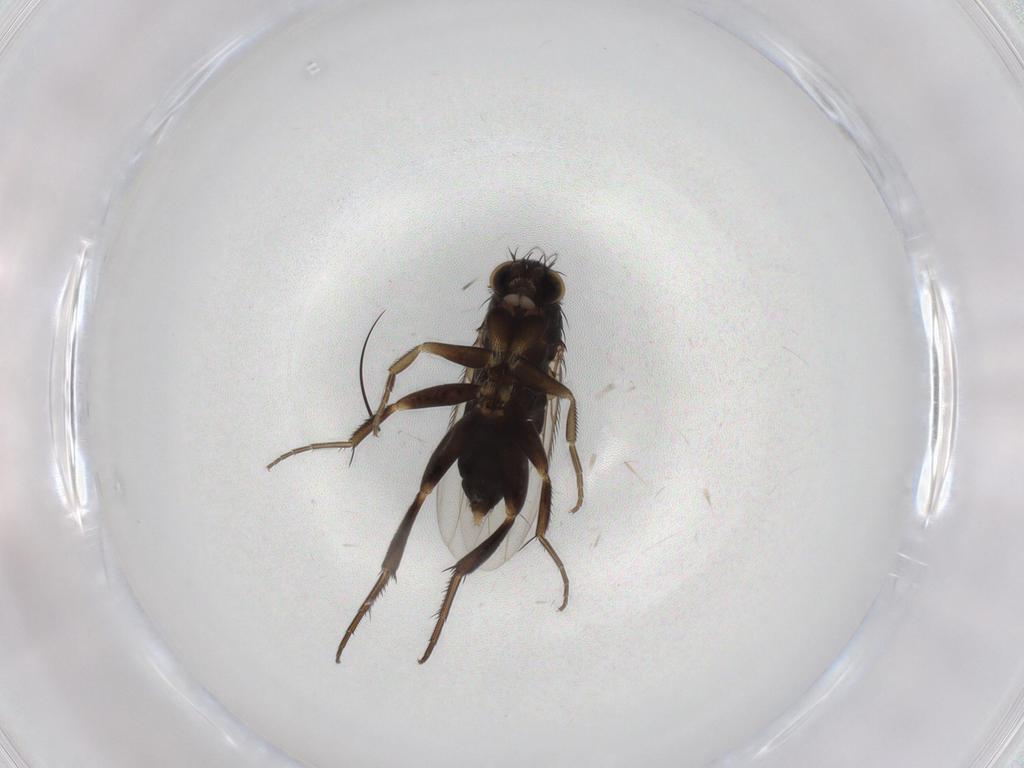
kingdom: Animalia
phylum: Arthropoda
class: Insecta
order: Diptera
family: Phoridae
